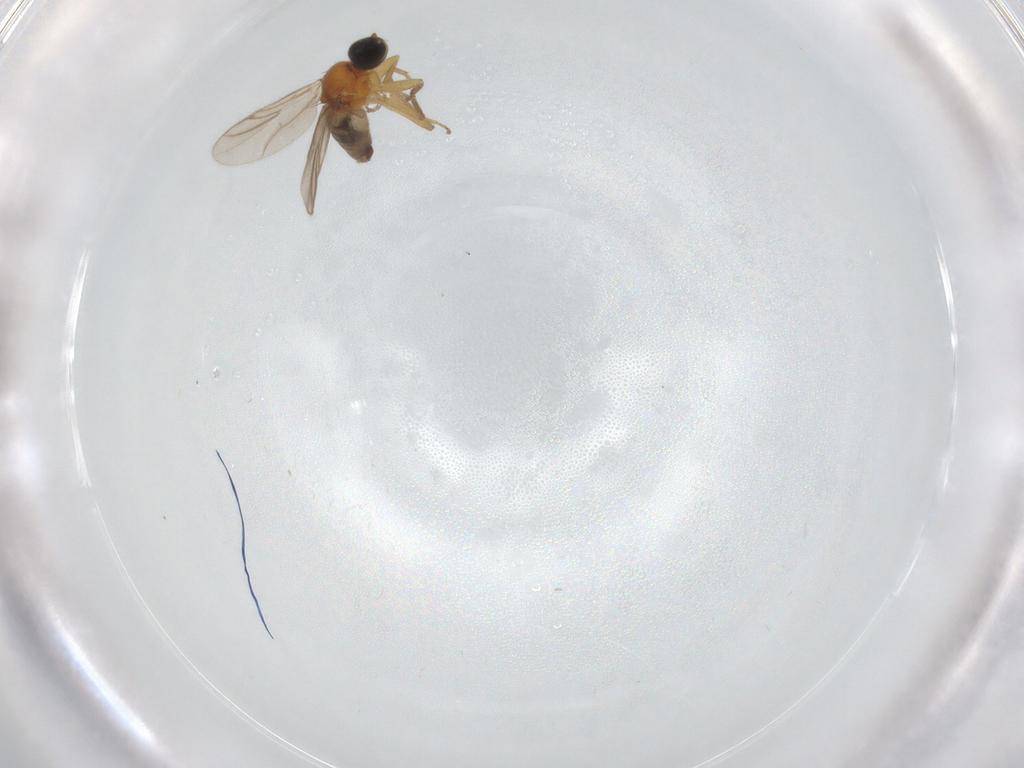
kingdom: Animalia
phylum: Arthropoda
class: Insecta
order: Diptera
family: Hybotidae
